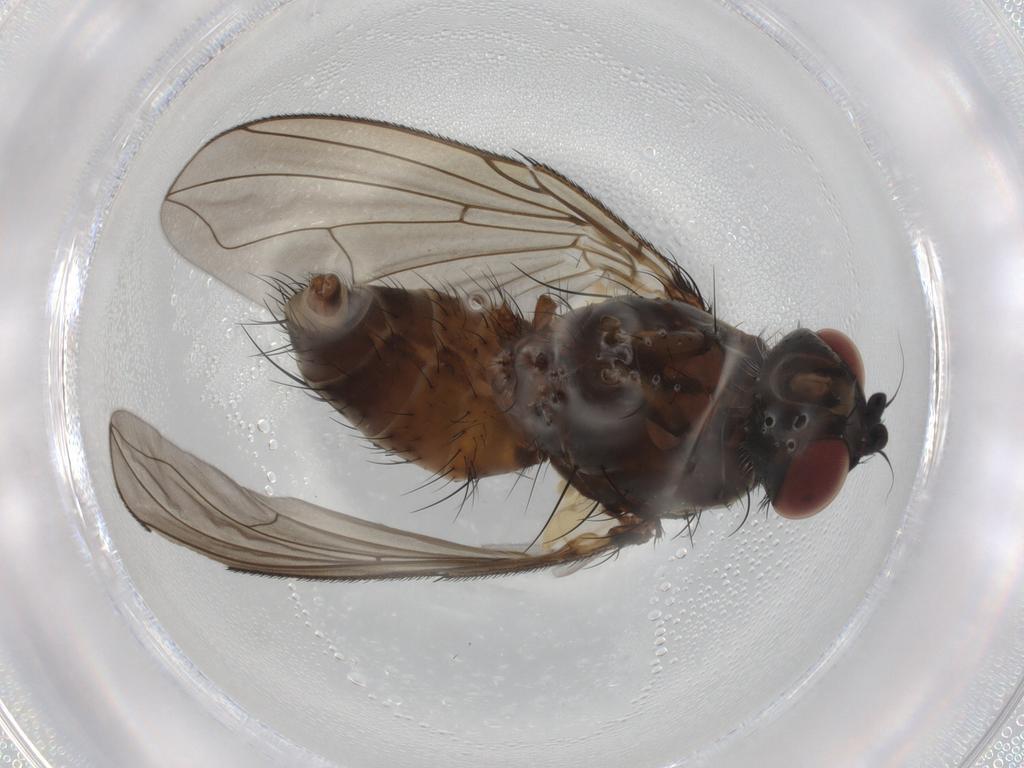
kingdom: Animalia
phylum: Arthropoda
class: Insecta
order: Diptera
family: Muscidae
